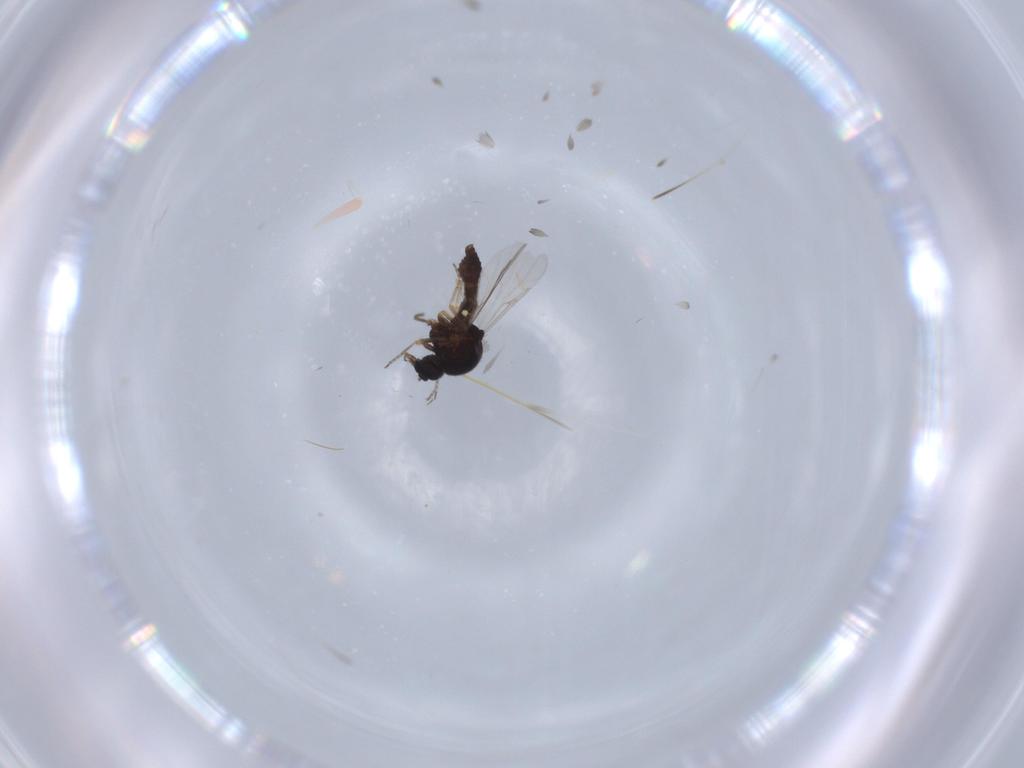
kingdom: Animalia
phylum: Arthropoda
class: Insecta
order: Diptera
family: Ceratopogonidae
